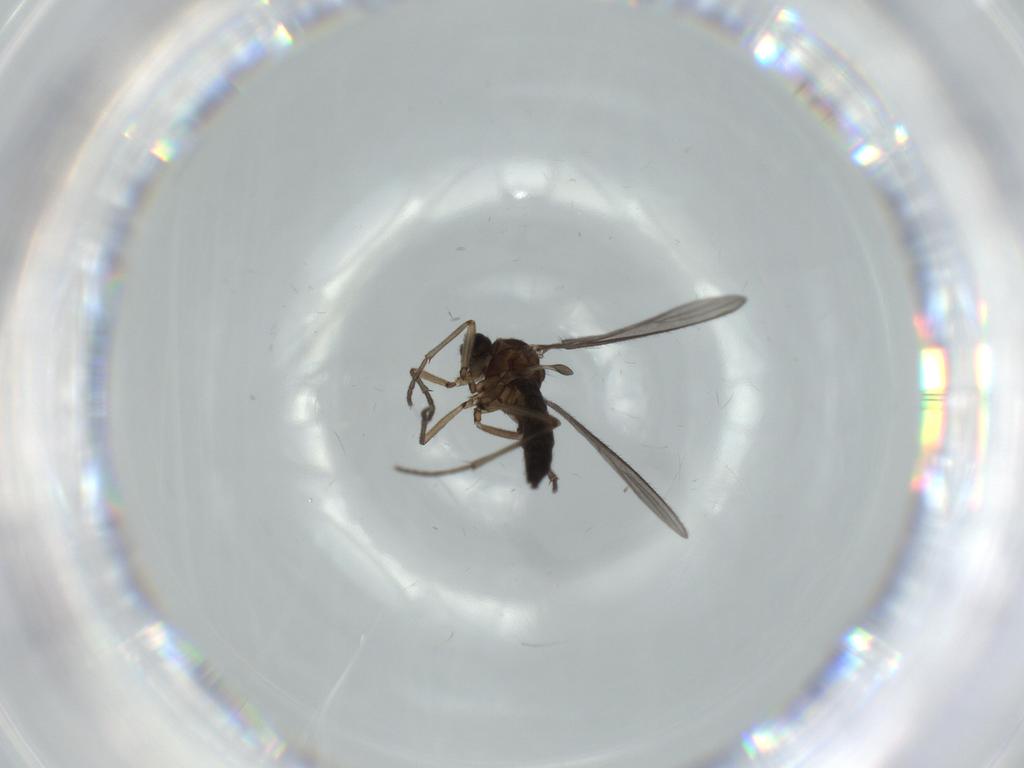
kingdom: Animalia
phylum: Arthropoda
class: Insecta
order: Diptera
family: Sciaridae
